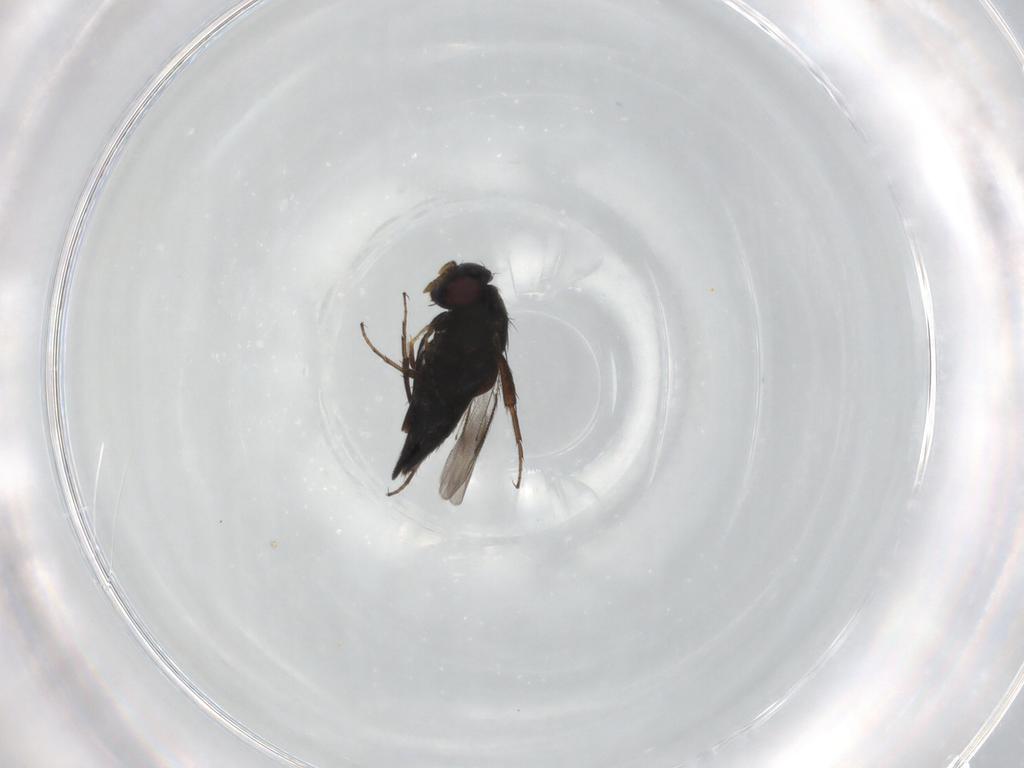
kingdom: Animalia
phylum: Arthropoda
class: Insecta
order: Hymenoptera
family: Pirenidae
